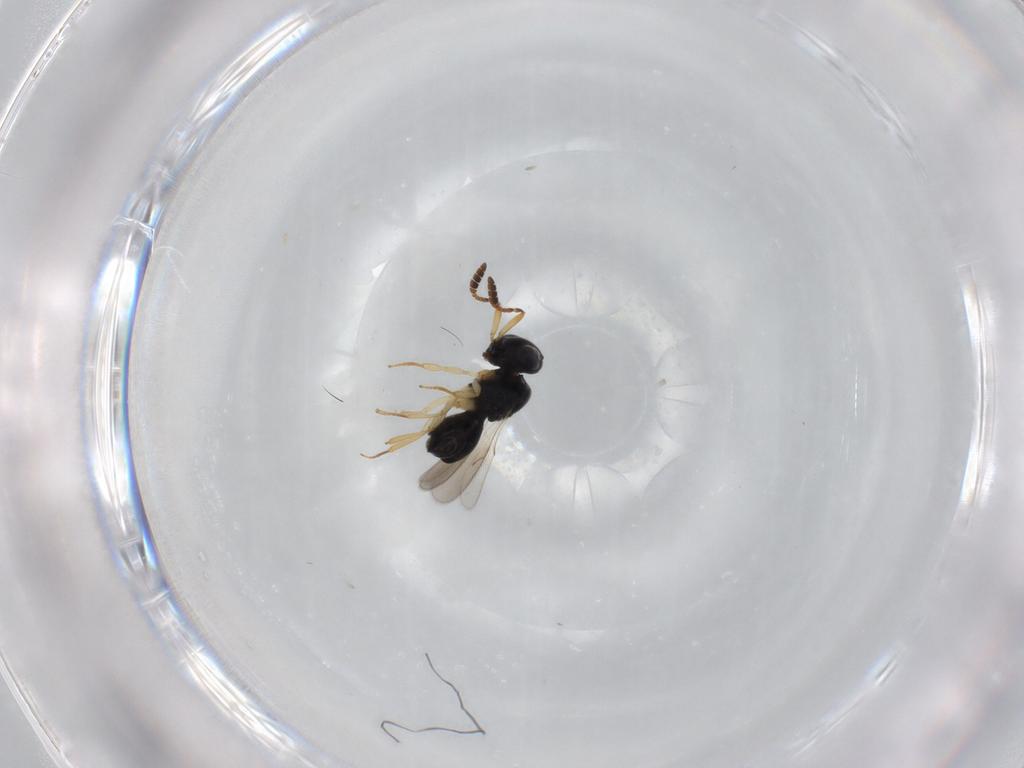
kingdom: Animalia
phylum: Arthropoda
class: Insecta
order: Hymenoptera
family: Scelionidae
